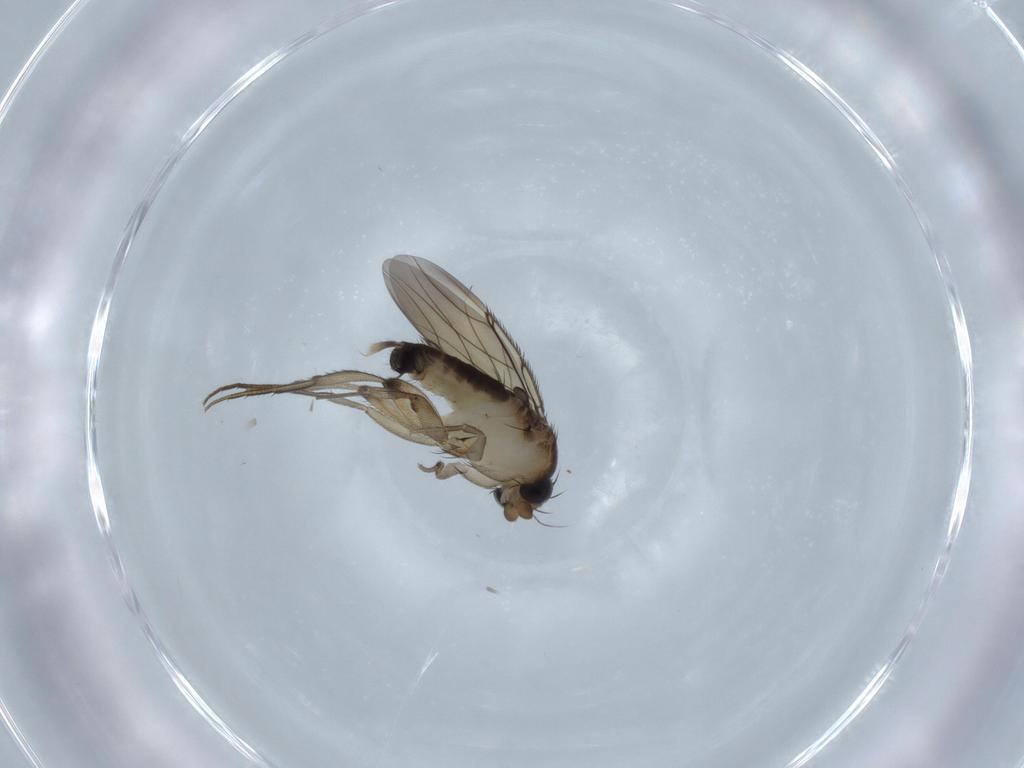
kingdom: Animalia
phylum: Arthropoda
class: Insecta
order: Diptera
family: Phoridae
